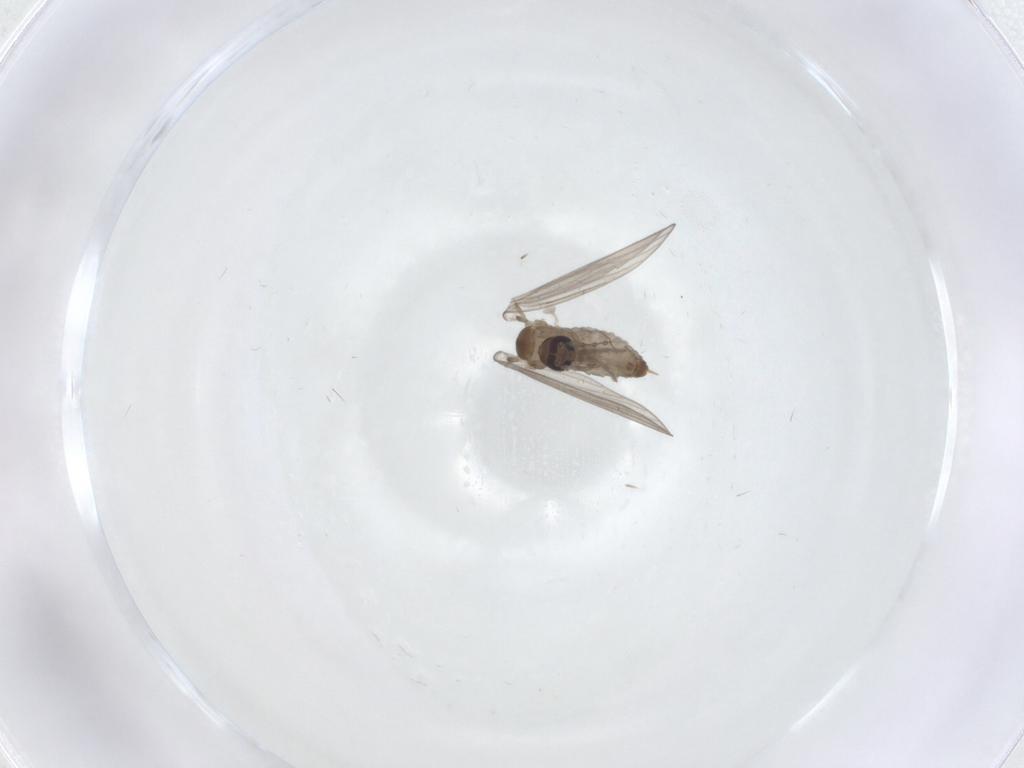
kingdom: Animalia
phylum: Arthropoda
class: Insecta
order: Diptera
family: Psychodidae
